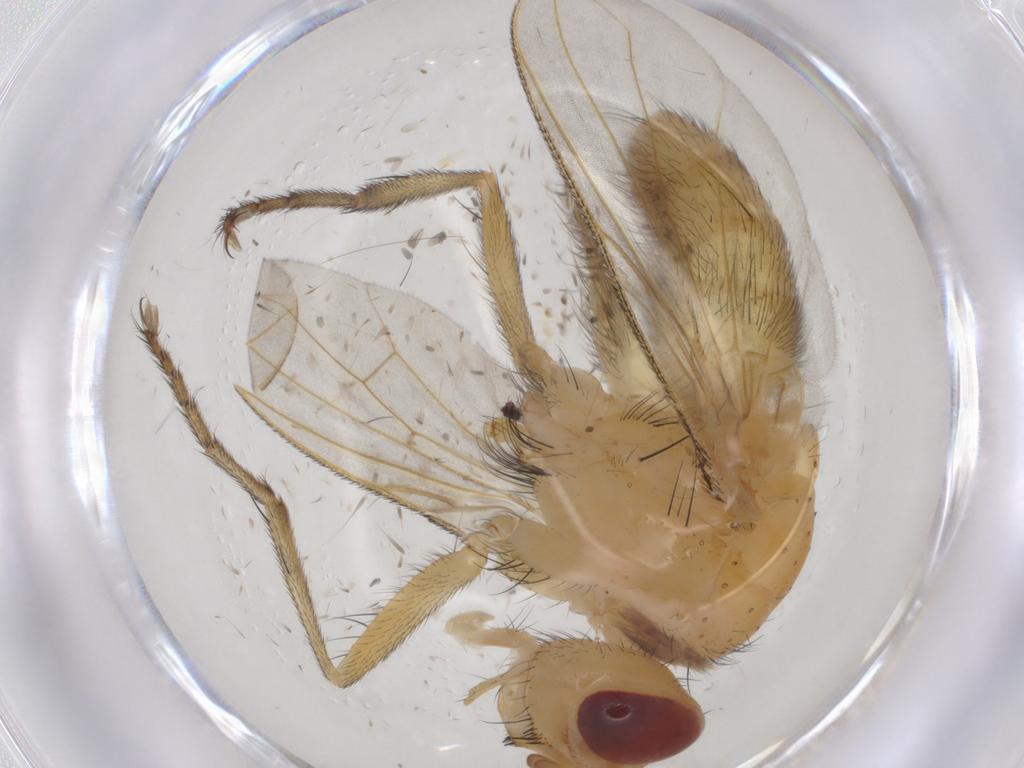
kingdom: Animalia
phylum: Arthropoda
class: Insecta
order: Diptera
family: Tachinidae
